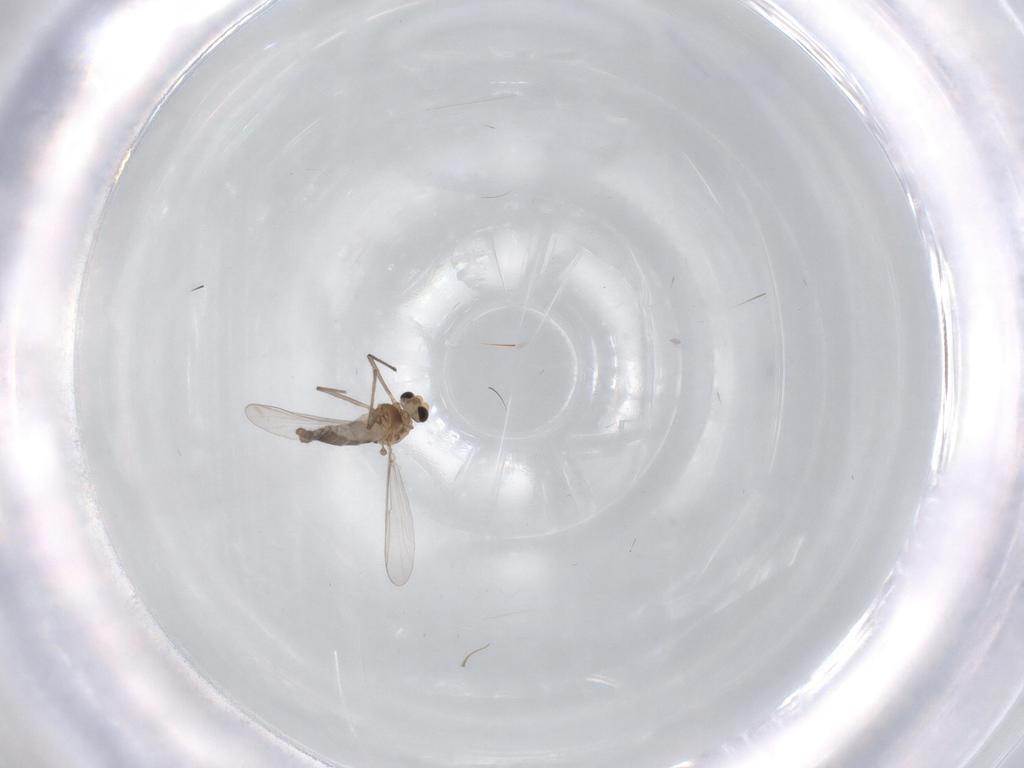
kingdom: Animalia
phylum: Arthropoda
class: Insecta
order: Diptera
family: Chironomidae
